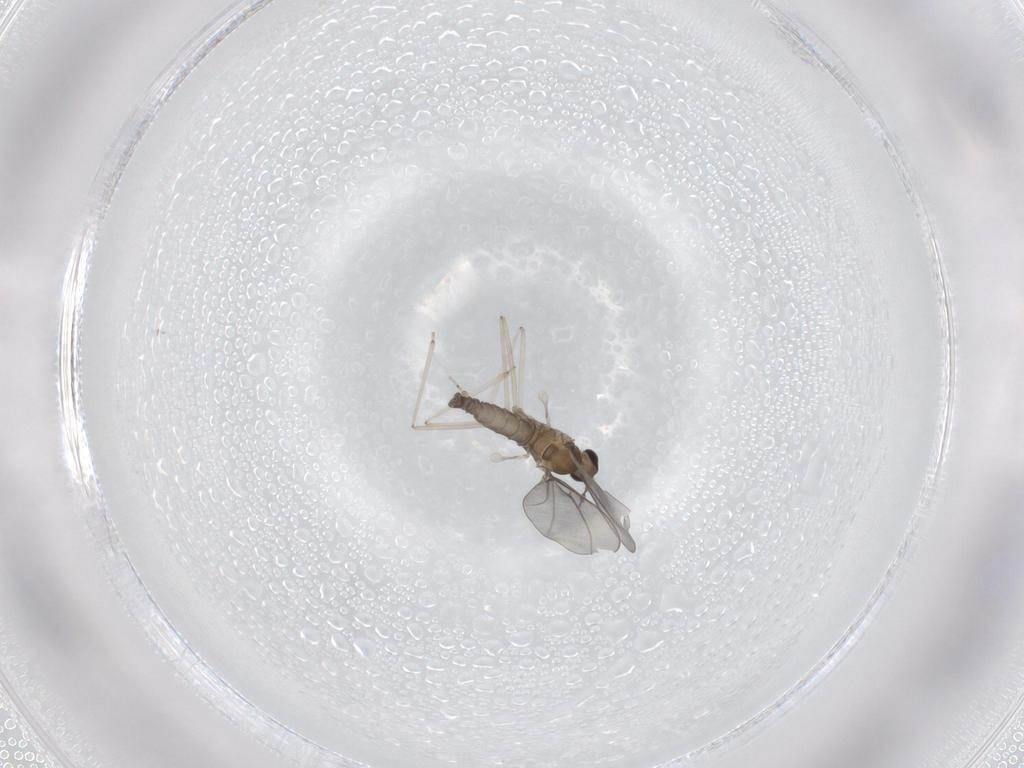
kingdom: Animalia
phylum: Arthropoda
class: Insecta
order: Diptera
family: Cecidomyiidae
